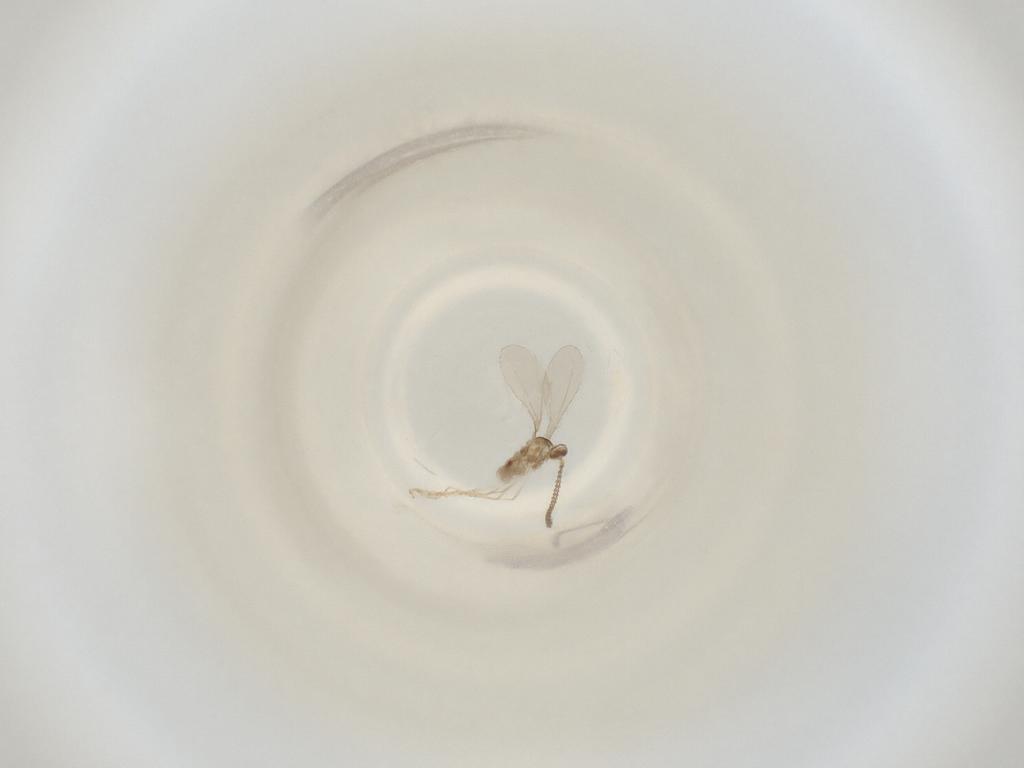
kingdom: Animalia
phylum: Arthropoda
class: Insecta
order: Diptera
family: Cecidomyiidae
